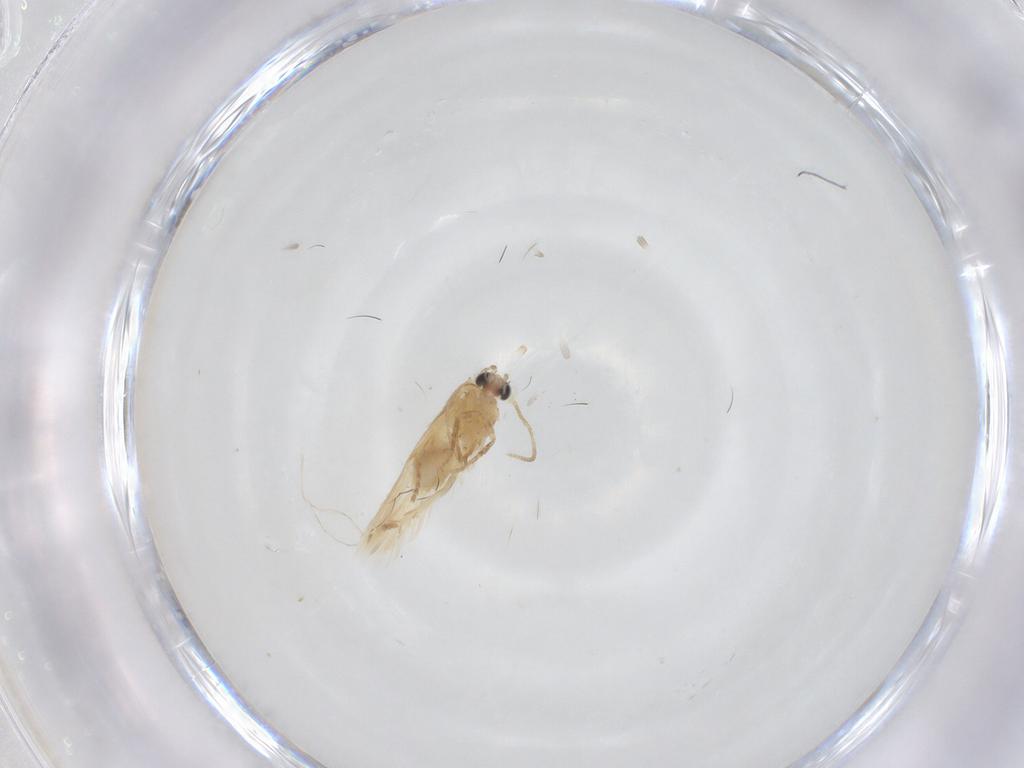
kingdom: Animalia
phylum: Arthropoda
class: Insecta
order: Lepidoptera
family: Nepticulidae
